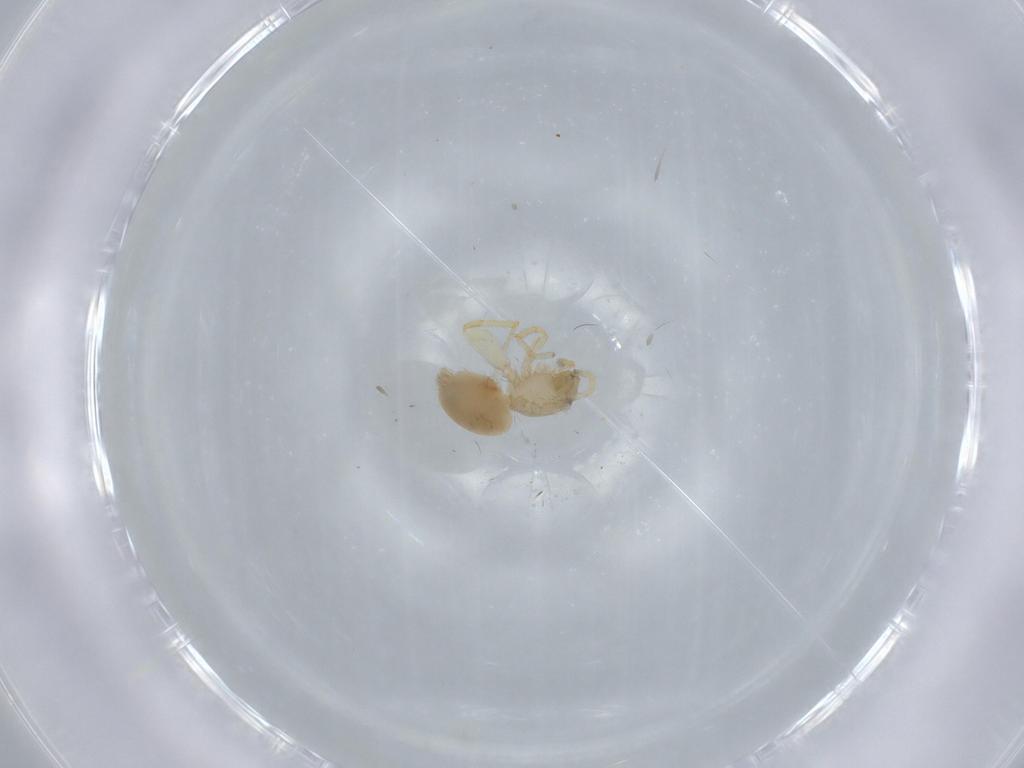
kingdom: Animalia
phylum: Arthropoda
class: Arachnida
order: Araneae
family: Oonopidae
